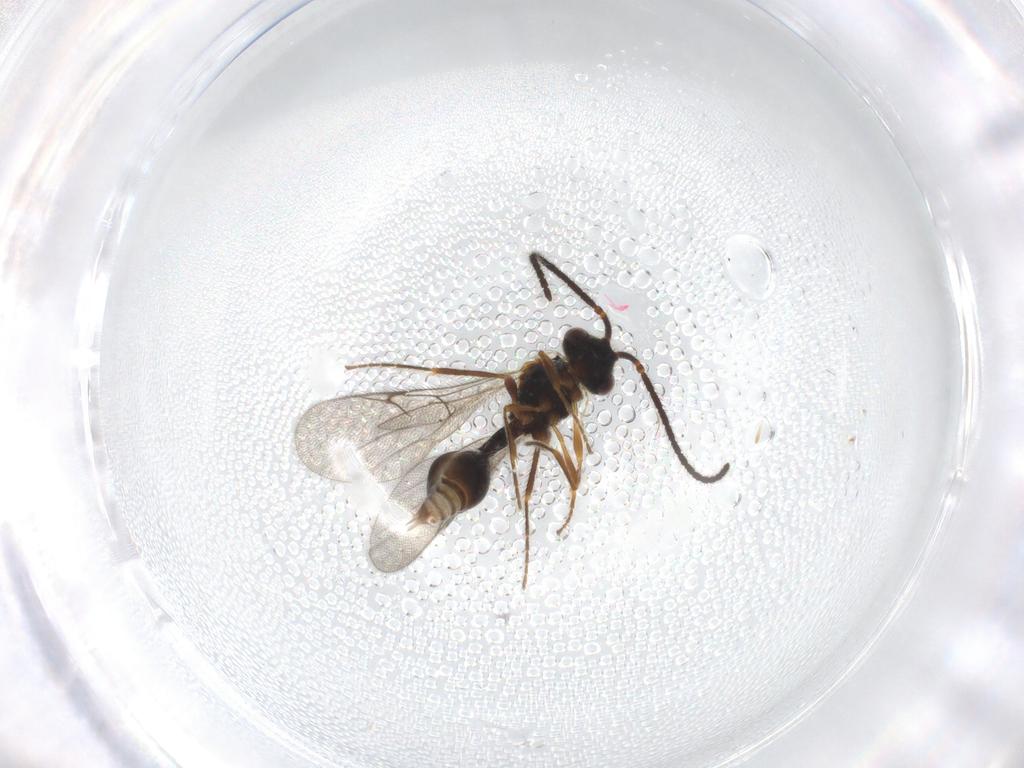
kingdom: Animalia
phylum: Arthropoda
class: Insecta
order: Hymenoptera
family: Diapriidae
